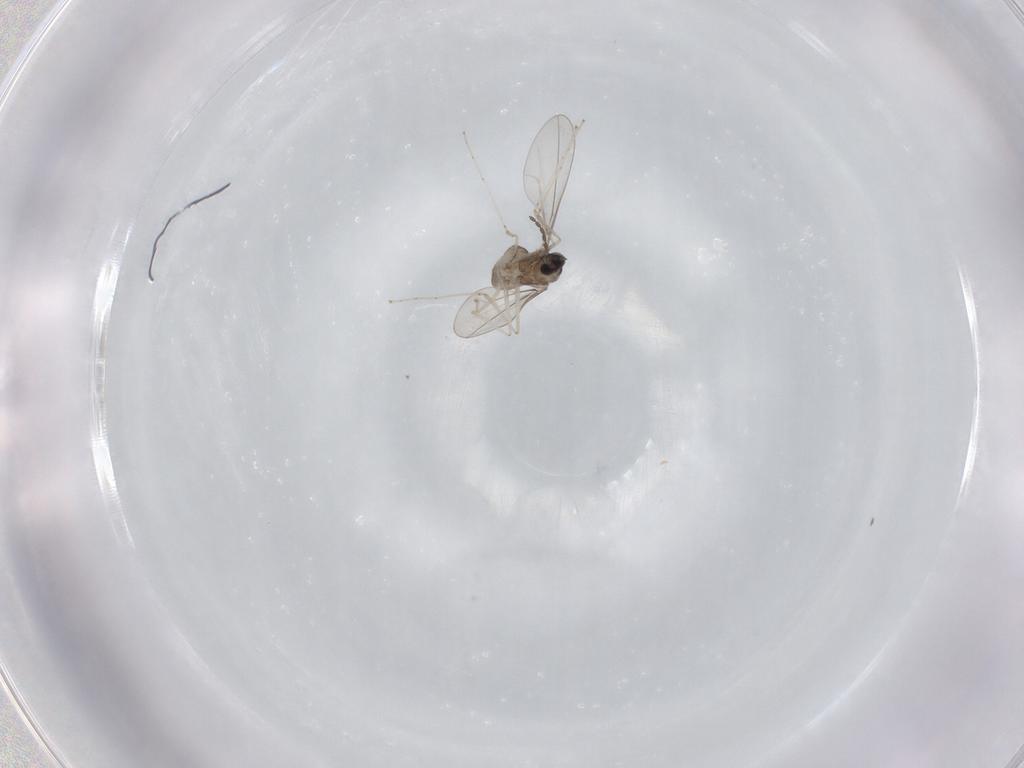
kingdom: Animalia
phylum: Arthropoda
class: Insecta
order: Diptera
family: Cecidomyiidae
